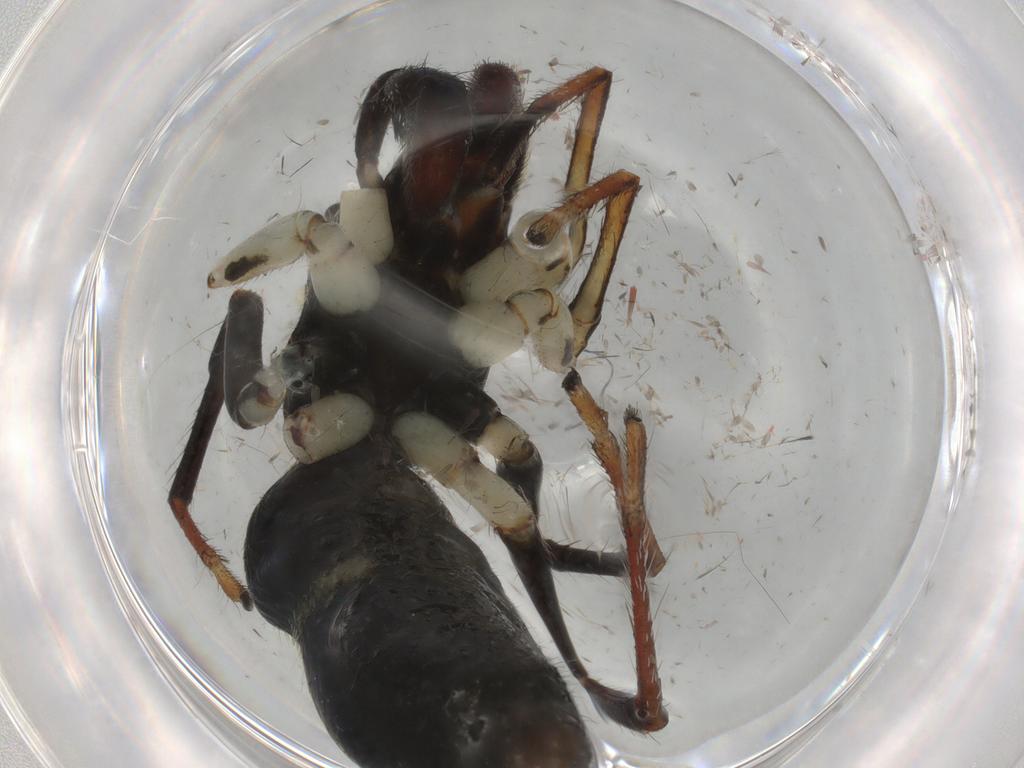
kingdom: Animalia
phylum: Arthropoda
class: Arachnida
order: Araneae
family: Salticidae
